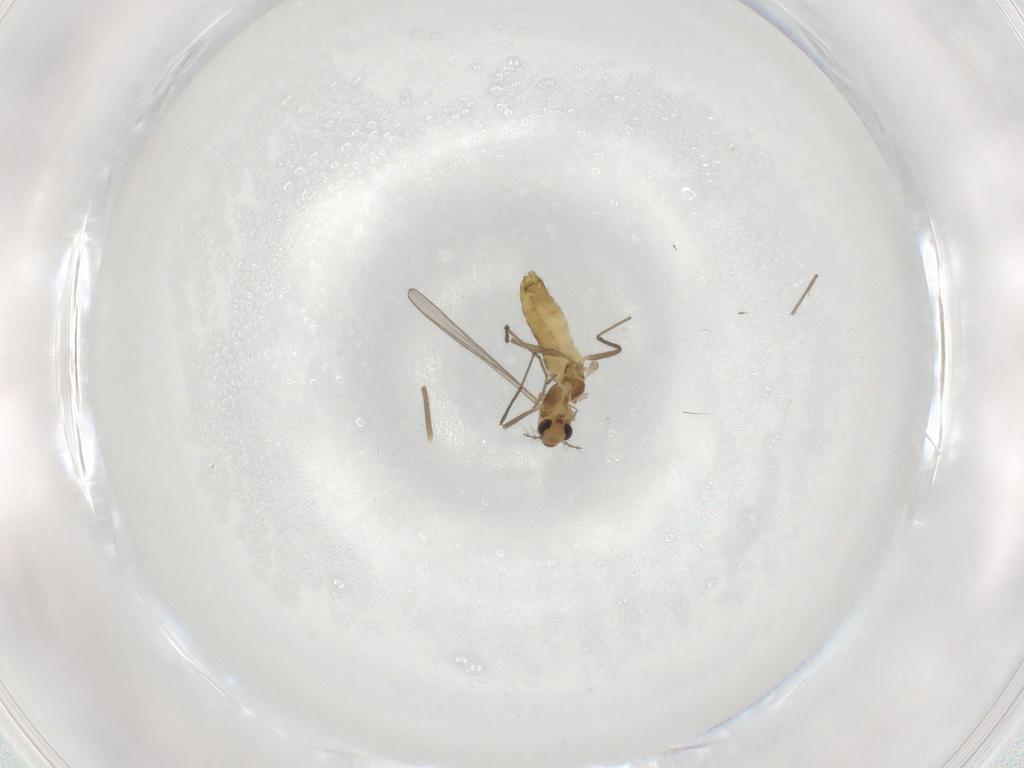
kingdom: Animalia
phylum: Arthropoda
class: Insecta
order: Diptera
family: Chironomidae
